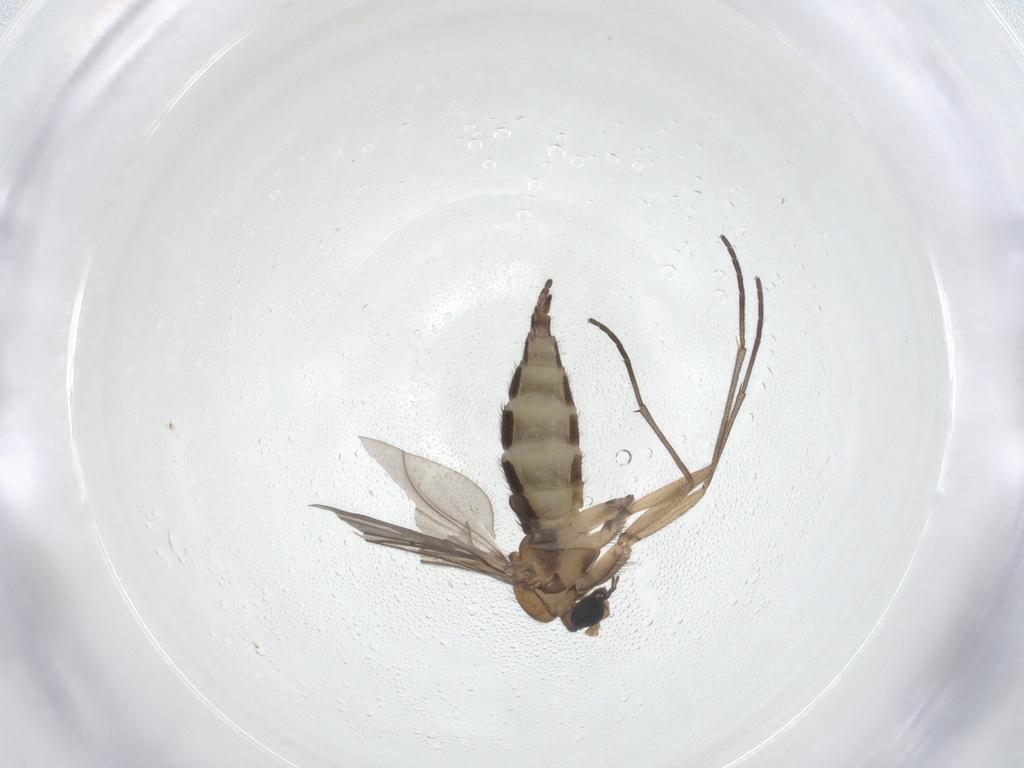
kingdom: Animalia
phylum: Arthropoda
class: Insecta
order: Diptera
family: Sciaridae
